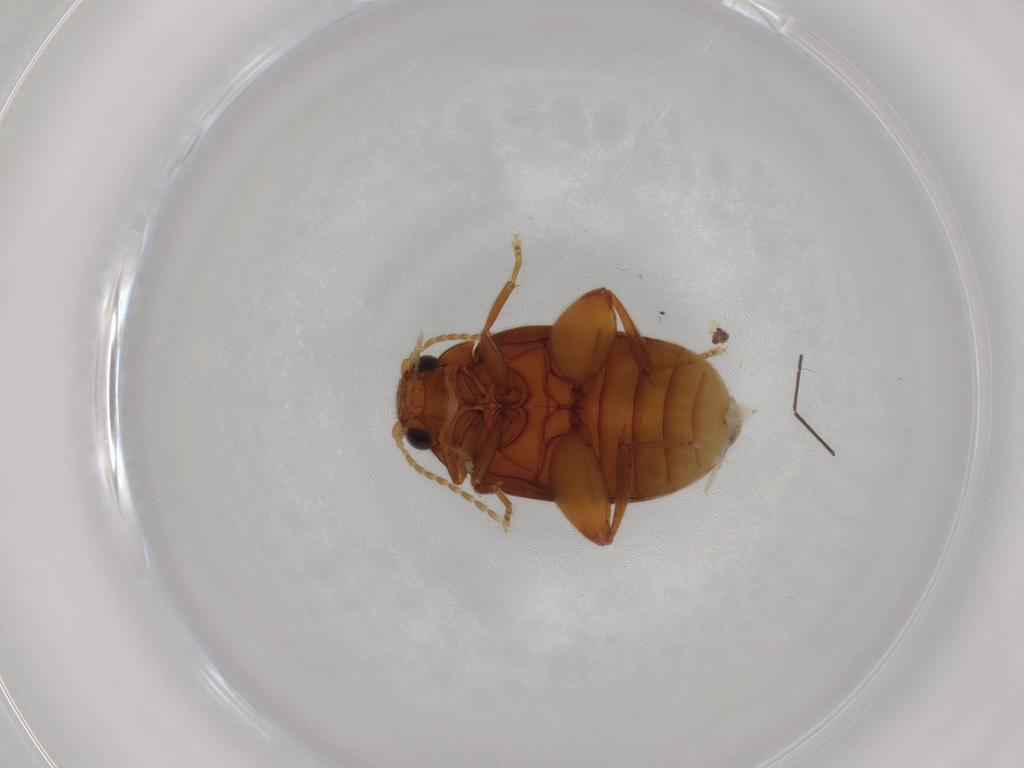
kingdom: Animalia
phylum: Arthropoda
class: Insecta
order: Coleoptera
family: Scirtidae
